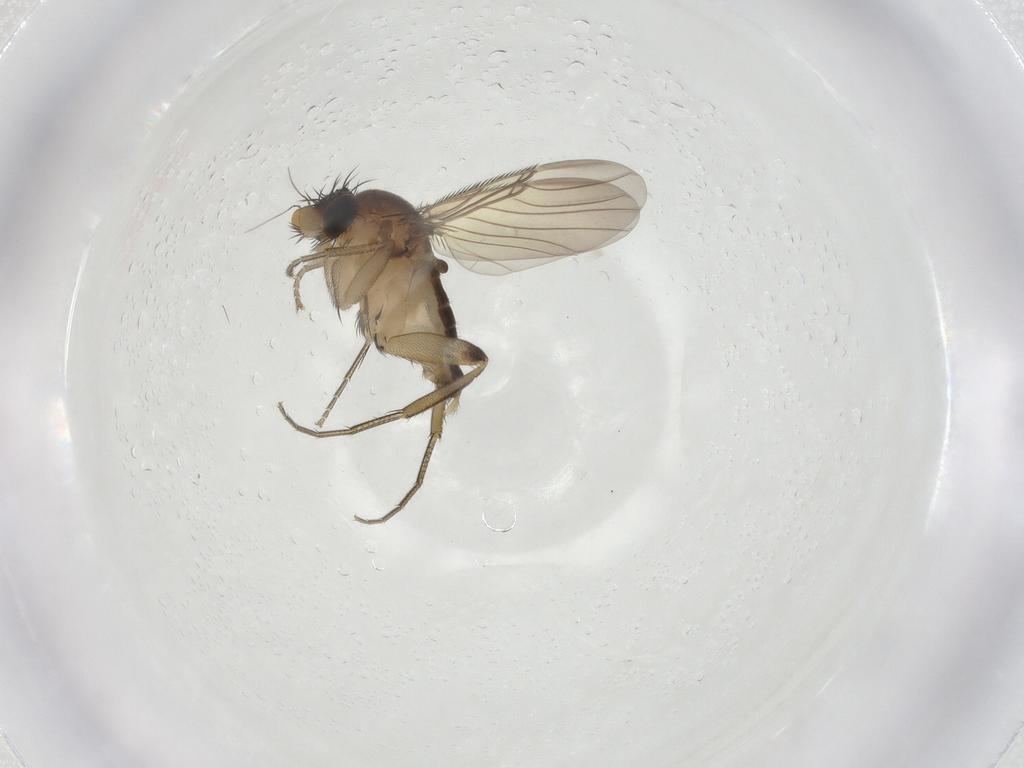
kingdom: Animalia
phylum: Arthropoda
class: Insecta
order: Diptera
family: Phoridae
